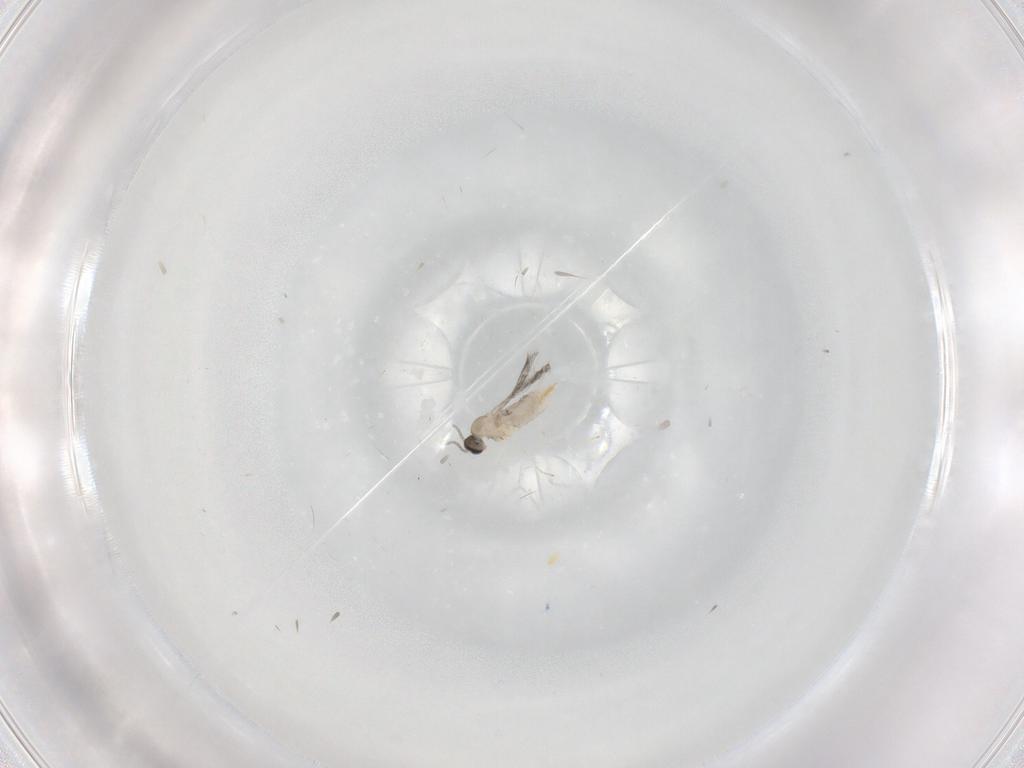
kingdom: Animalia
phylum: Arthropoda
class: Insecta
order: Diptera
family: Cecidomyiidae
